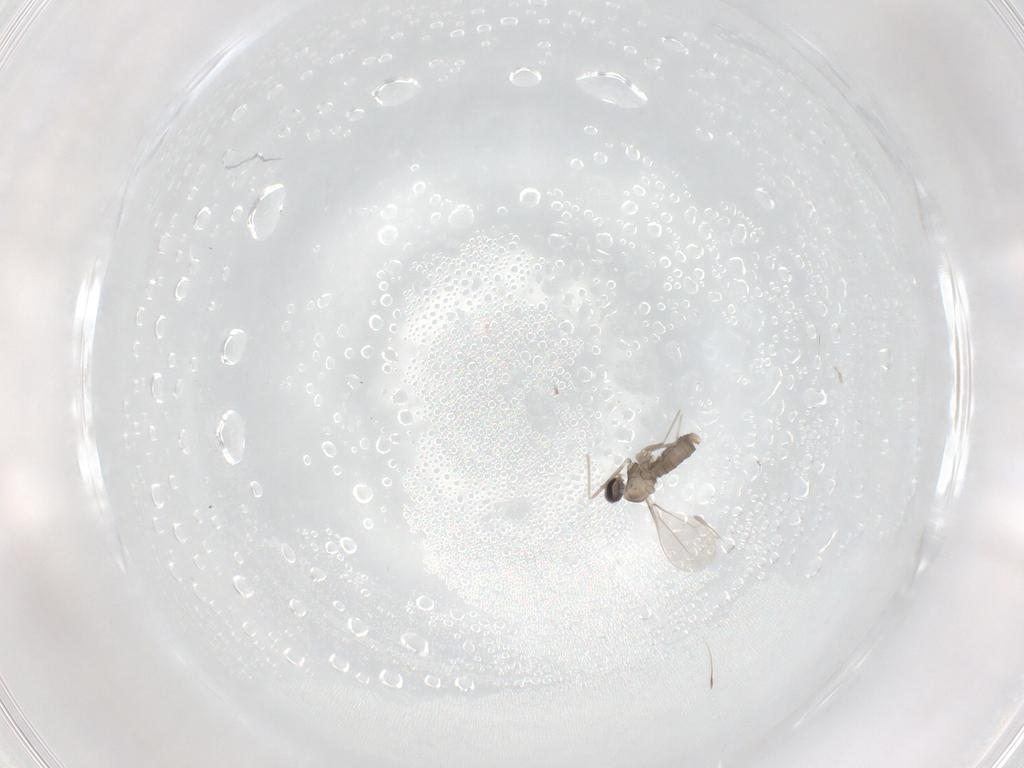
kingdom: Animalia
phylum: Arthropoda
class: Insecta
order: Diptera
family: Cecidomyiidae
